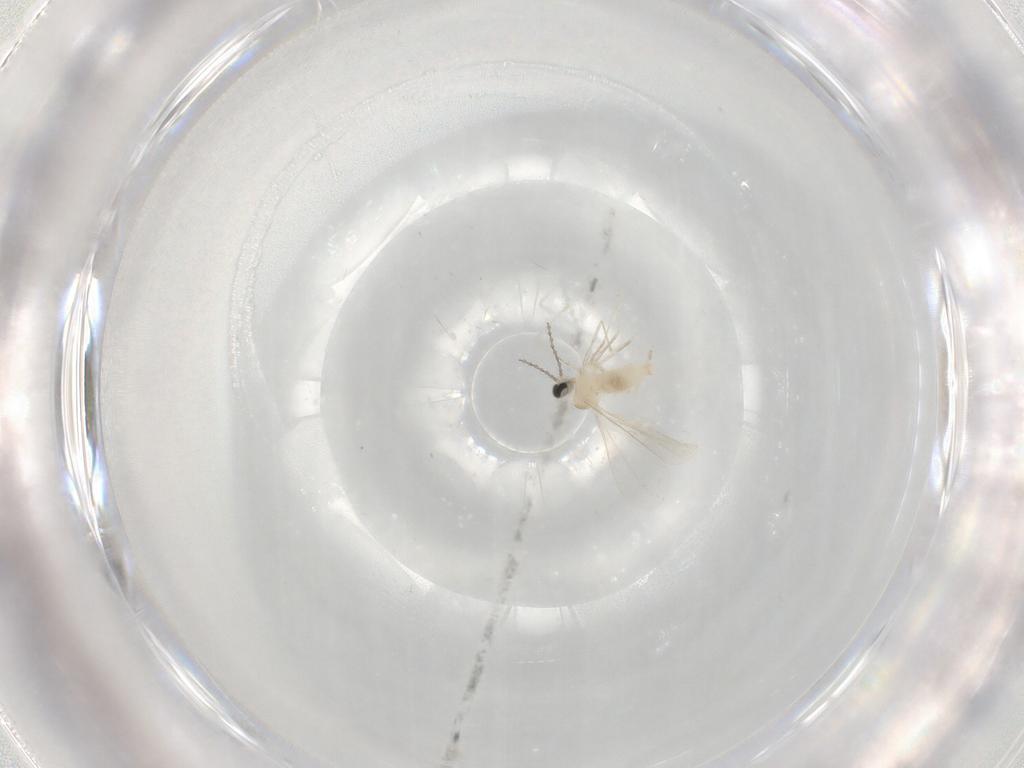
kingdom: Animalia
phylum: Arthropoda
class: Insecta
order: Diptera
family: Cecidomyiidae
